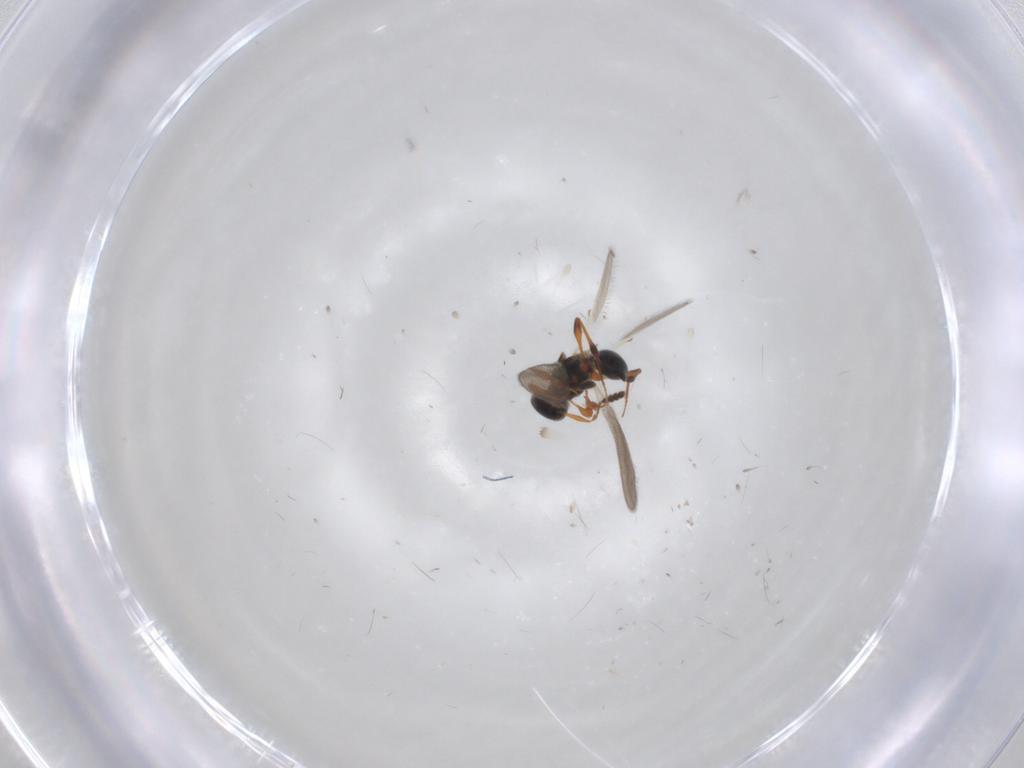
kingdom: Animalia
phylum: Arthropoda
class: Insecta
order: Hymenoptera
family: Platygastridae
